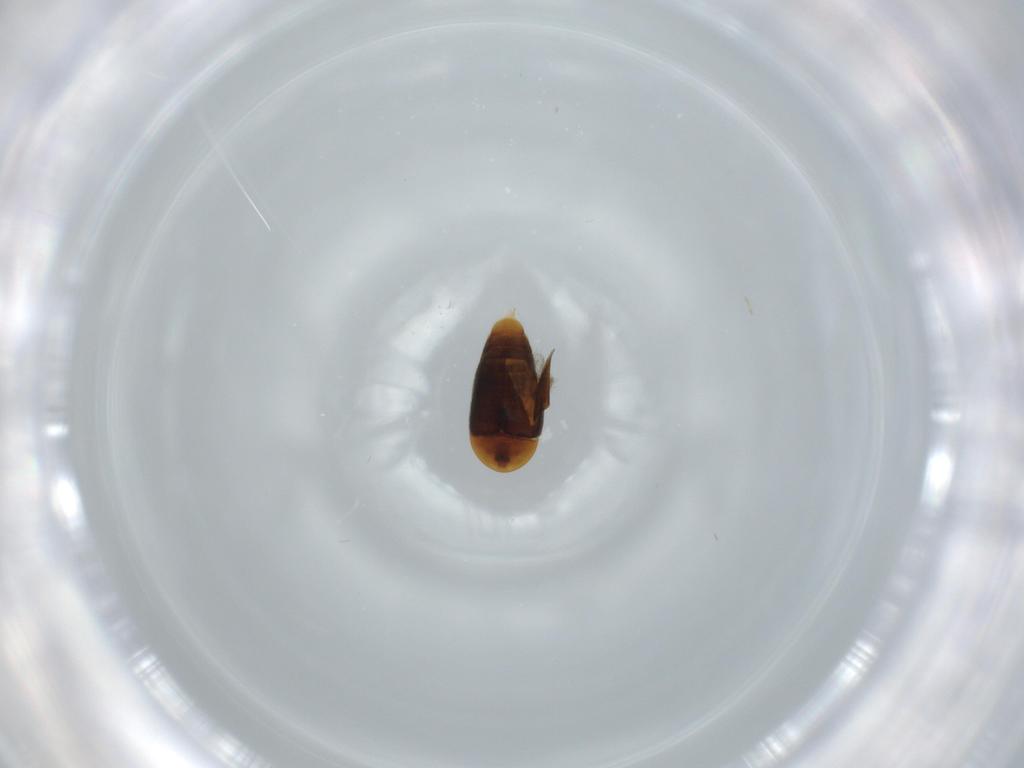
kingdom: Animalia
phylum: Arthropoda
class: Insecta
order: Coleoptera
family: Corylophidae
